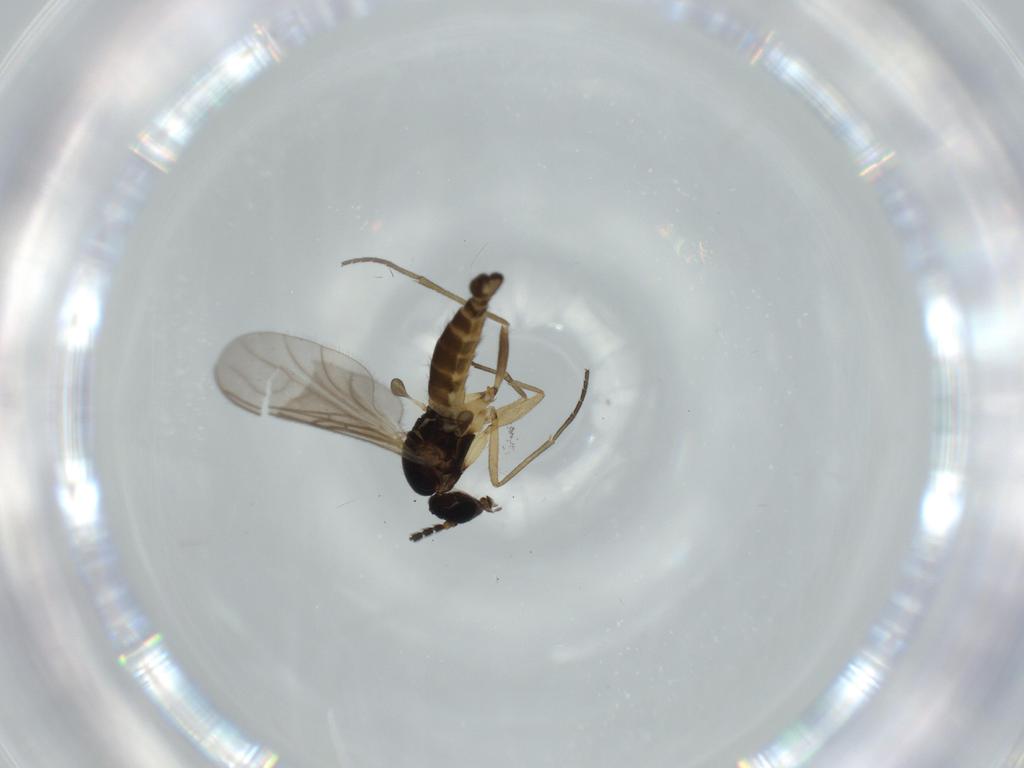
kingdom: Animalia
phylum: Arthropoda
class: Insecta
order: Diptera
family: Sciaridae
